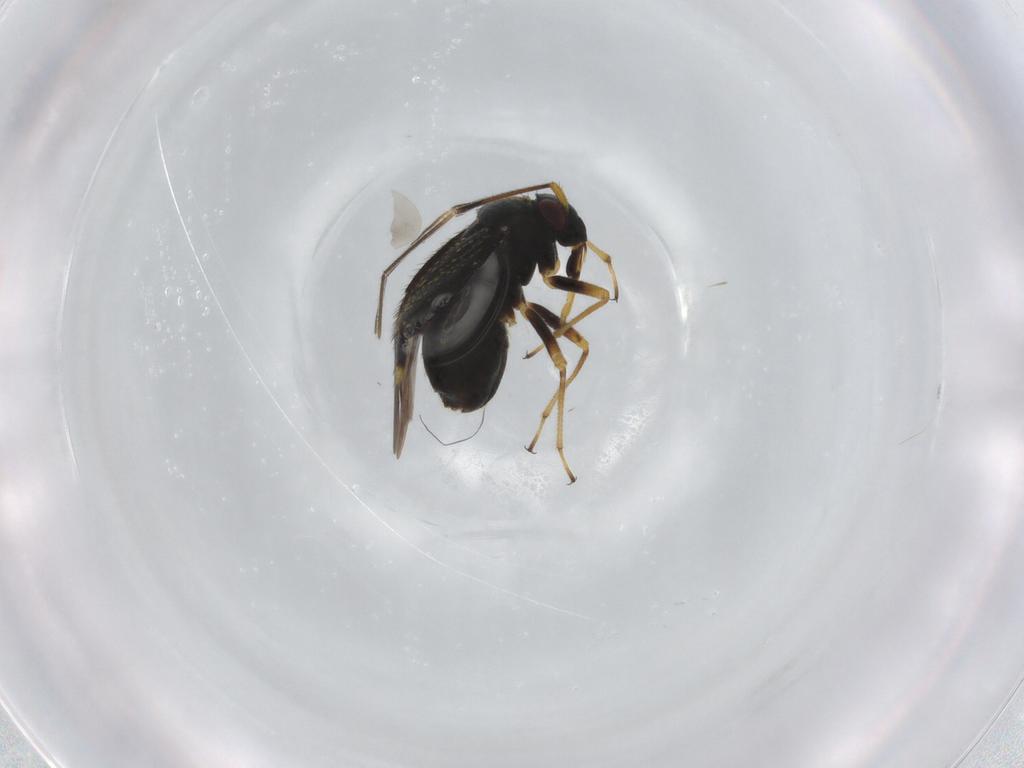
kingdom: Animalia
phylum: Arthropoda
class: Insecta
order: Hemiptera
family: Miridae
